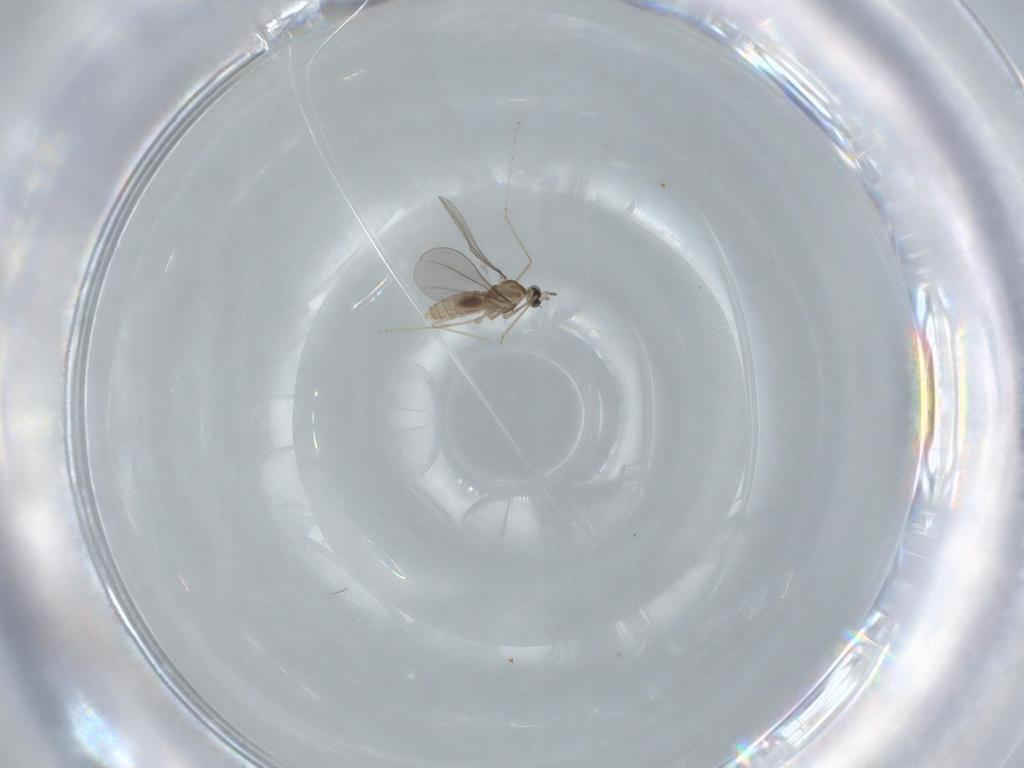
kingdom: Animalia
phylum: Arthropoda
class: Insecta
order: Diptera
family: Cecidomyiidae
